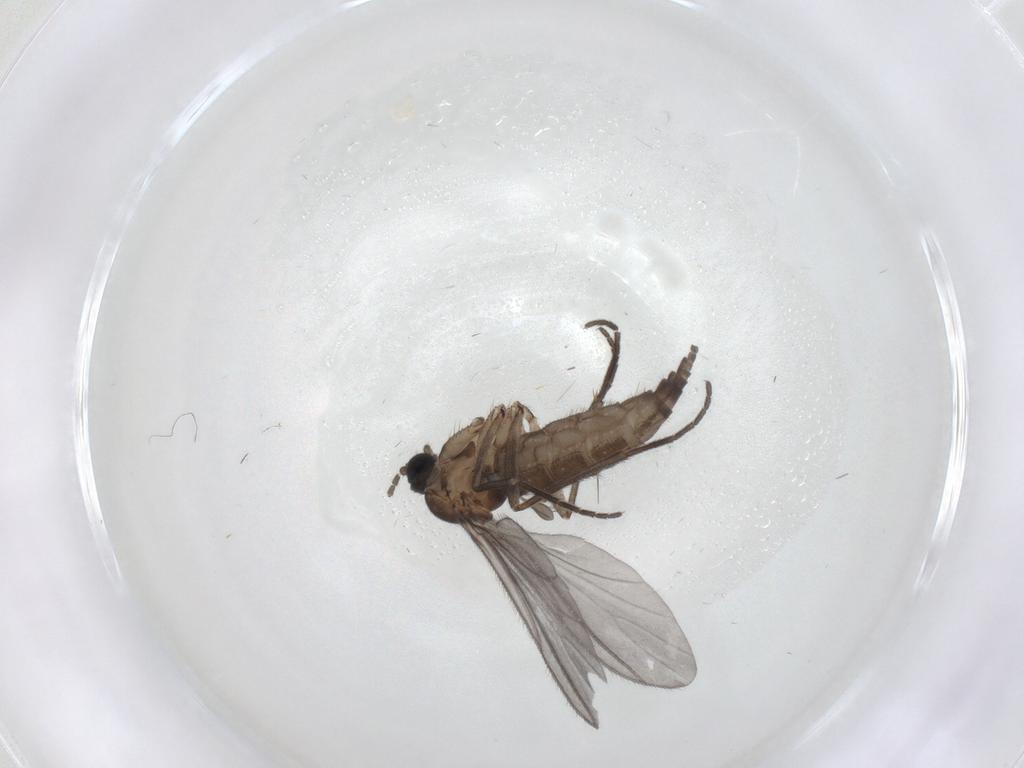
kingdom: Animalia
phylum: Arthropoda
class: Insecta
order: Diptera
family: Sciaridae
